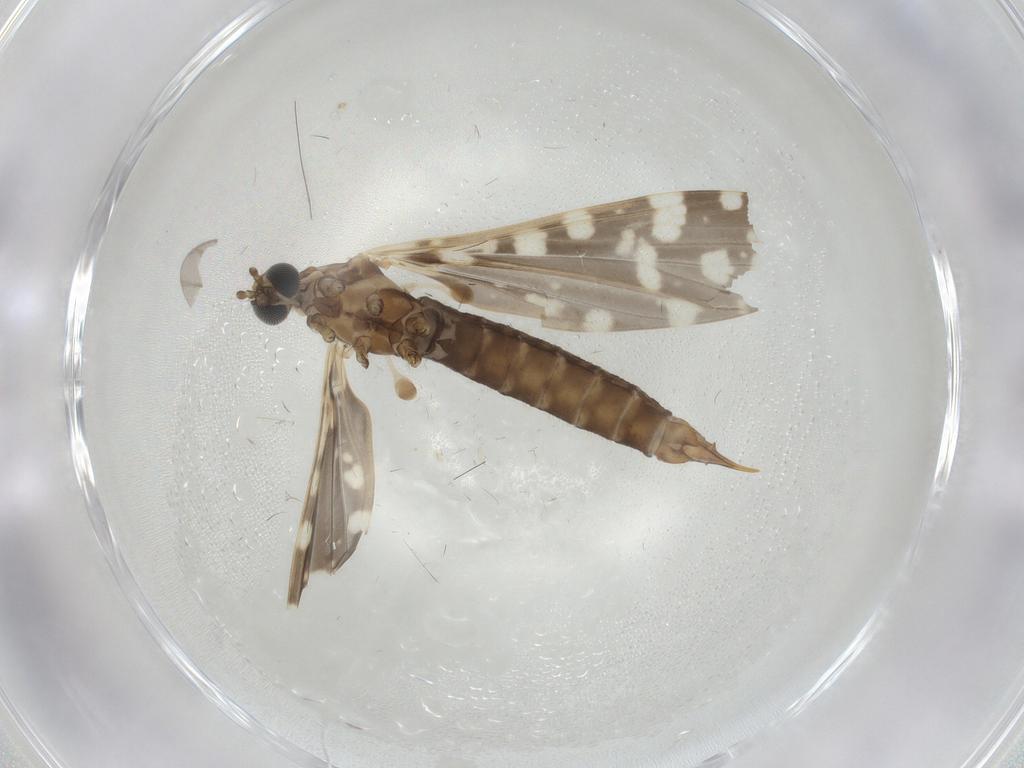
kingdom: Animalia
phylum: Arthropoda
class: Insecta
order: Diptera
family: Limoniidae
